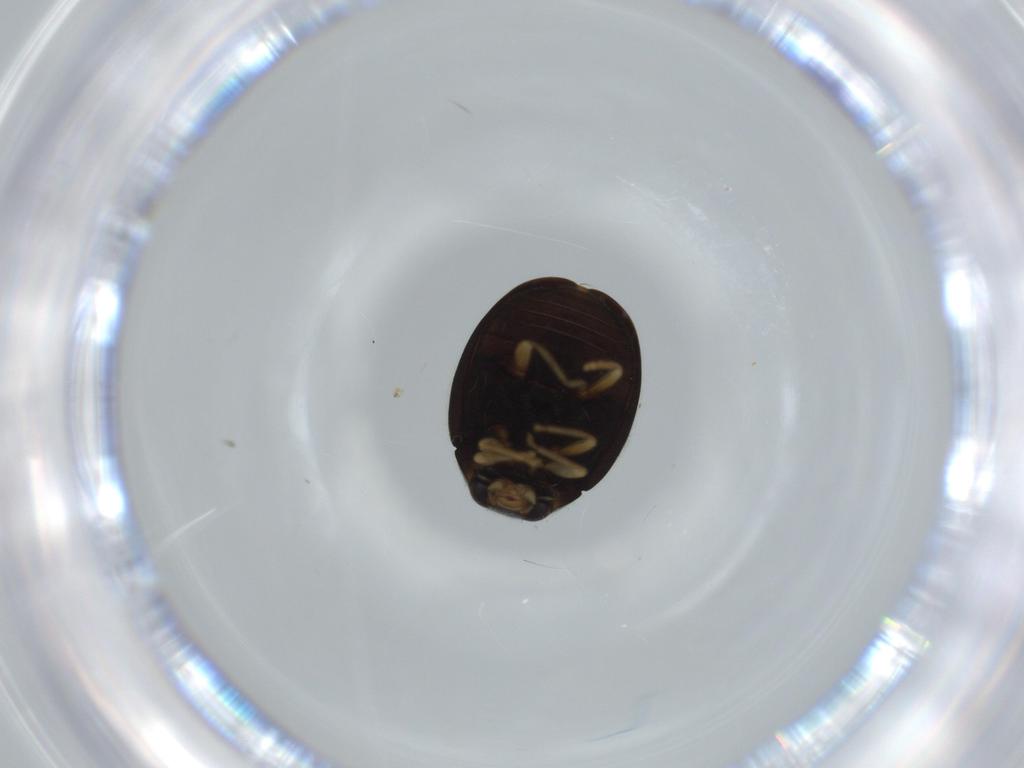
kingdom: Animalia
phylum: Arthropoda
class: Insecta
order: Coleoptera
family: Coccinellidae
